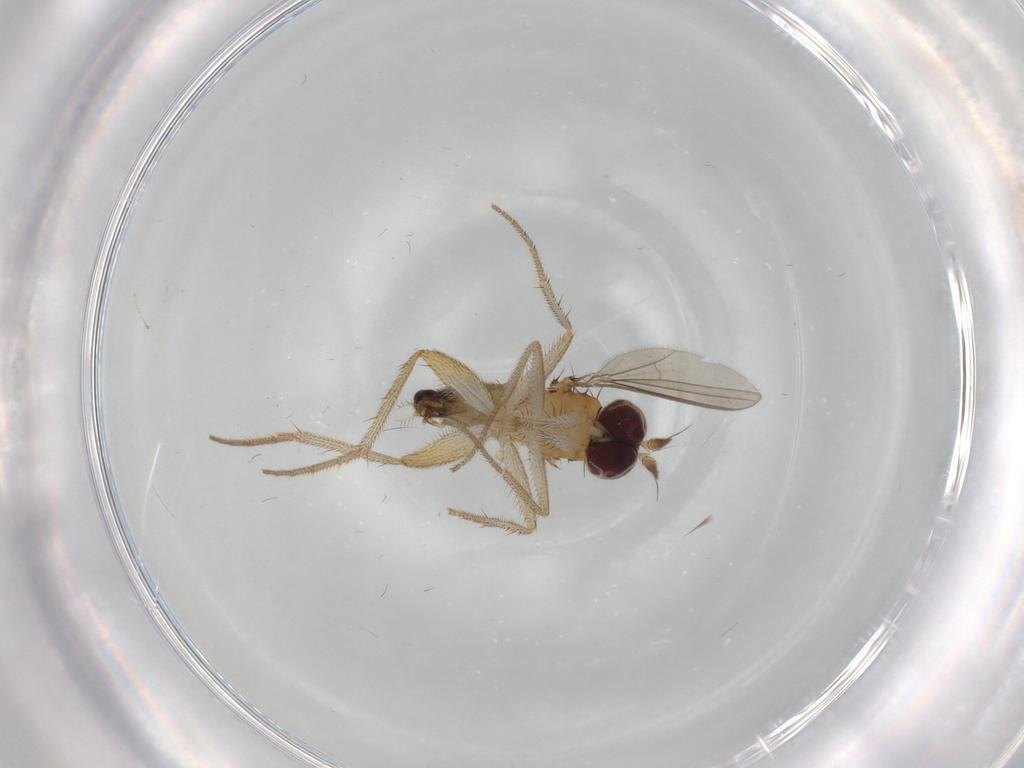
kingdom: Animalia
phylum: Arthropoda
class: Insecta
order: Diptera
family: Dolichopodidae
